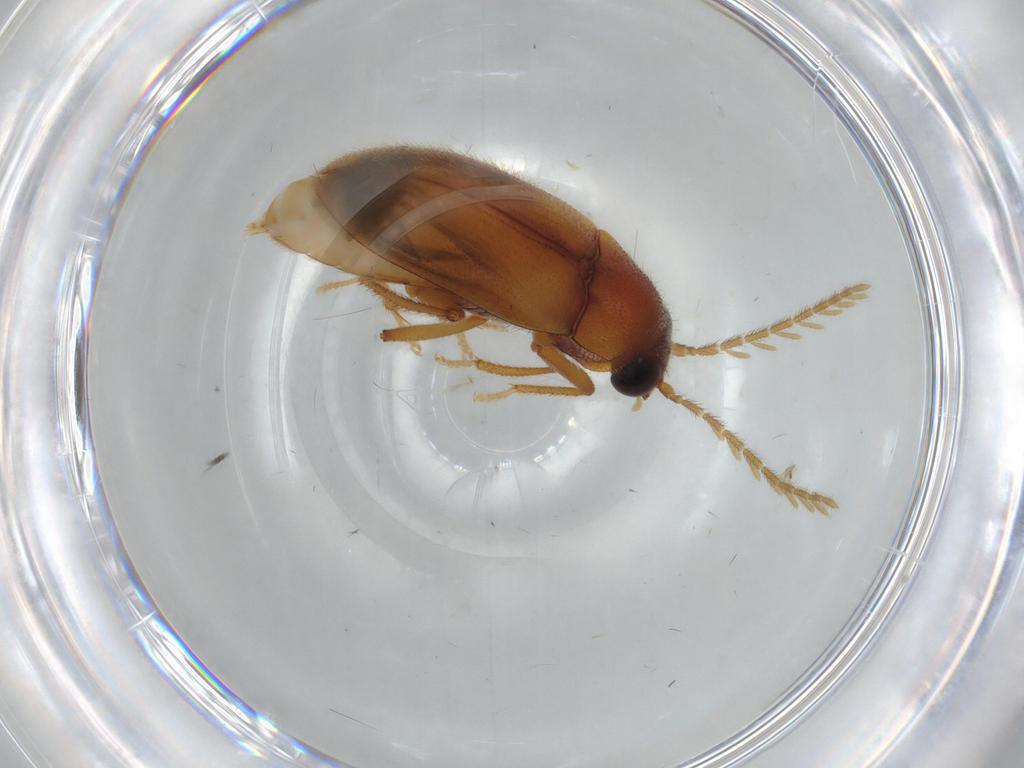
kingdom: Animalia
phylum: Arthropoda
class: Insecta
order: Coleoptera
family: Ptilodactylidae
